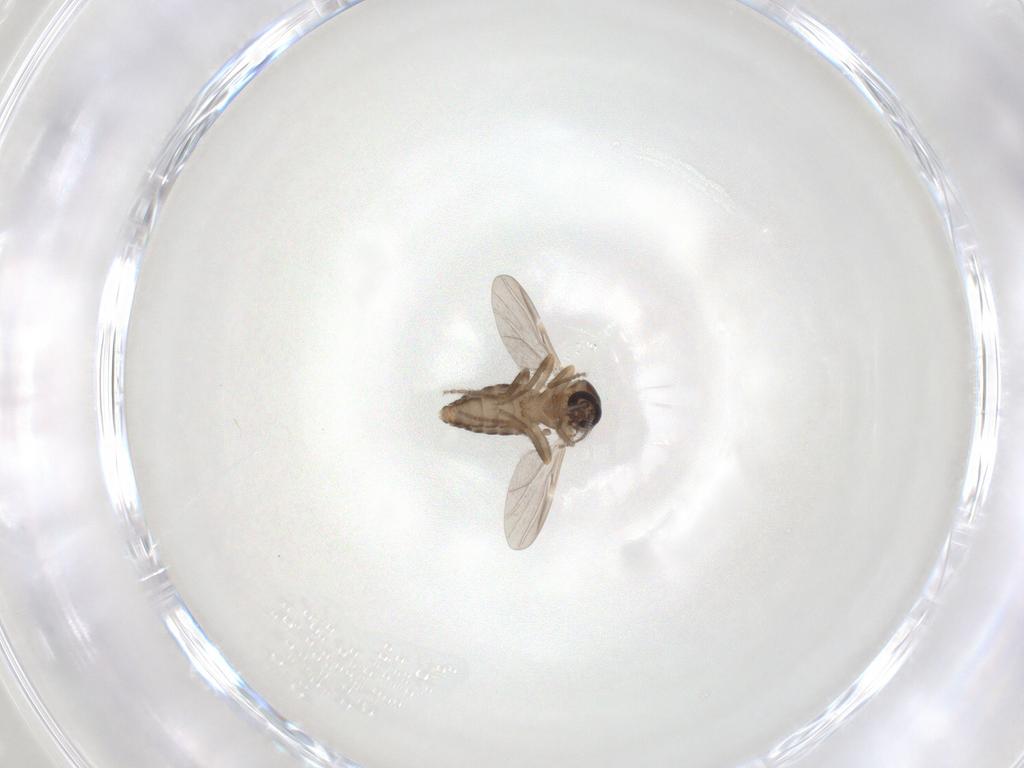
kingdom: Animalia
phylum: Arthropoda
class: Insecta
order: Diptera
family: Ceratopogonidae
